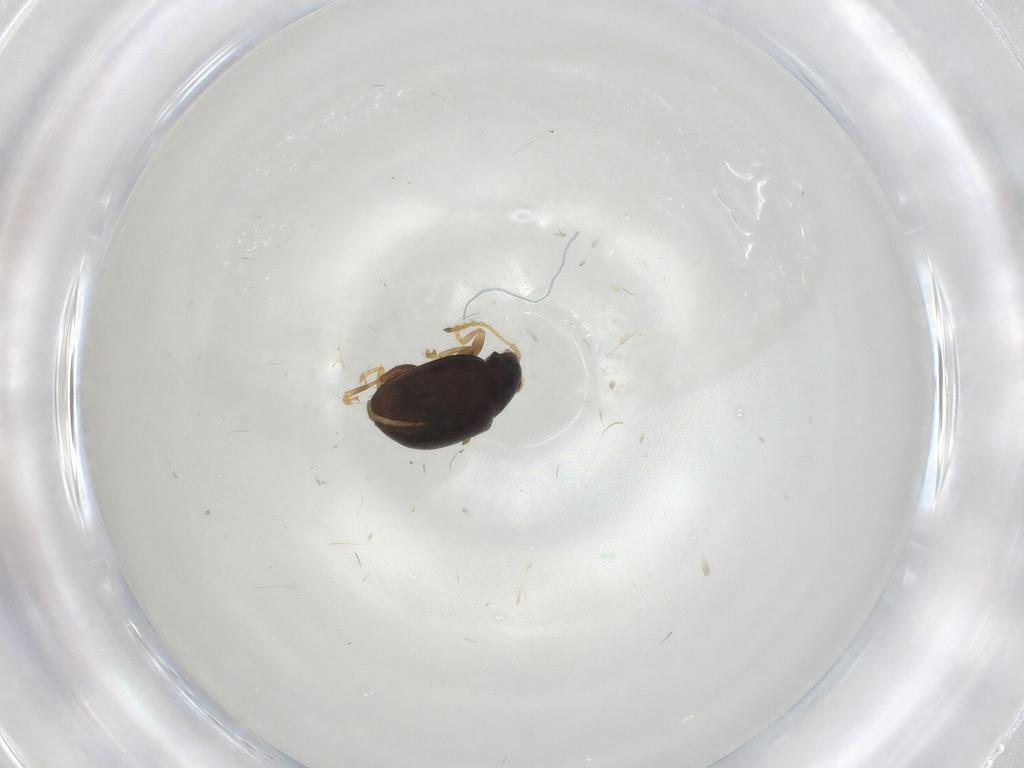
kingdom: Animalia
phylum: Arthropoda
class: Insecta
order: Coleoptera
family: Chrysomelidae
